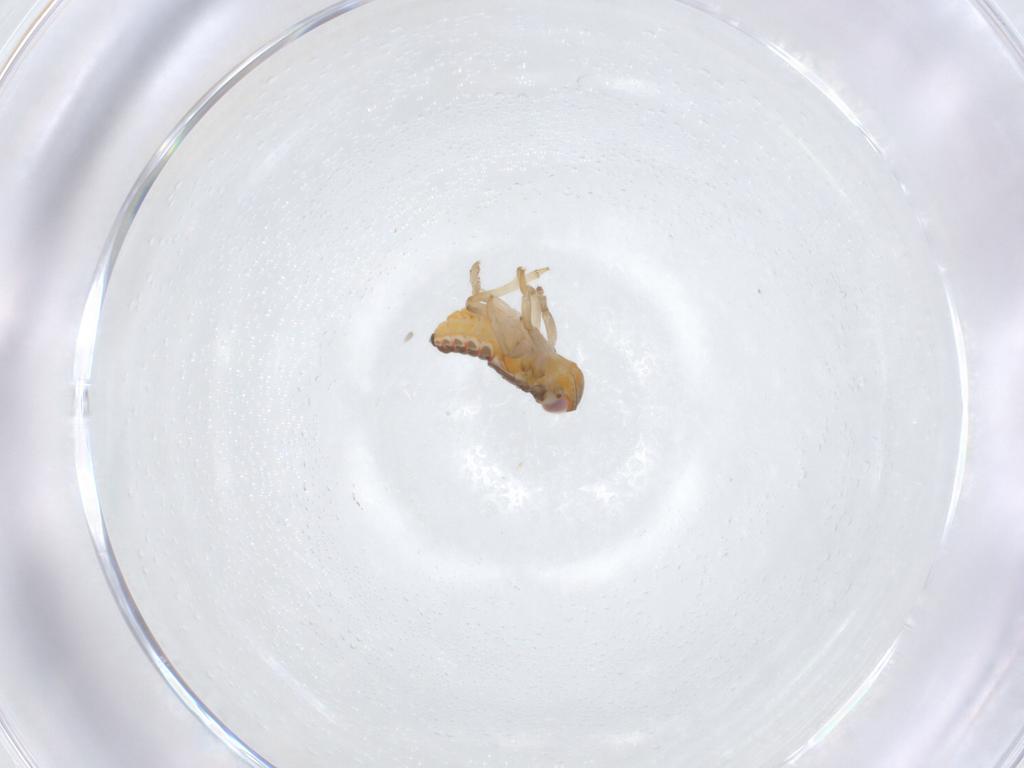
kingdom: Animalia
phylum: Arthropoda
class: Insecta
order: Hemiptera
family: Issidae
